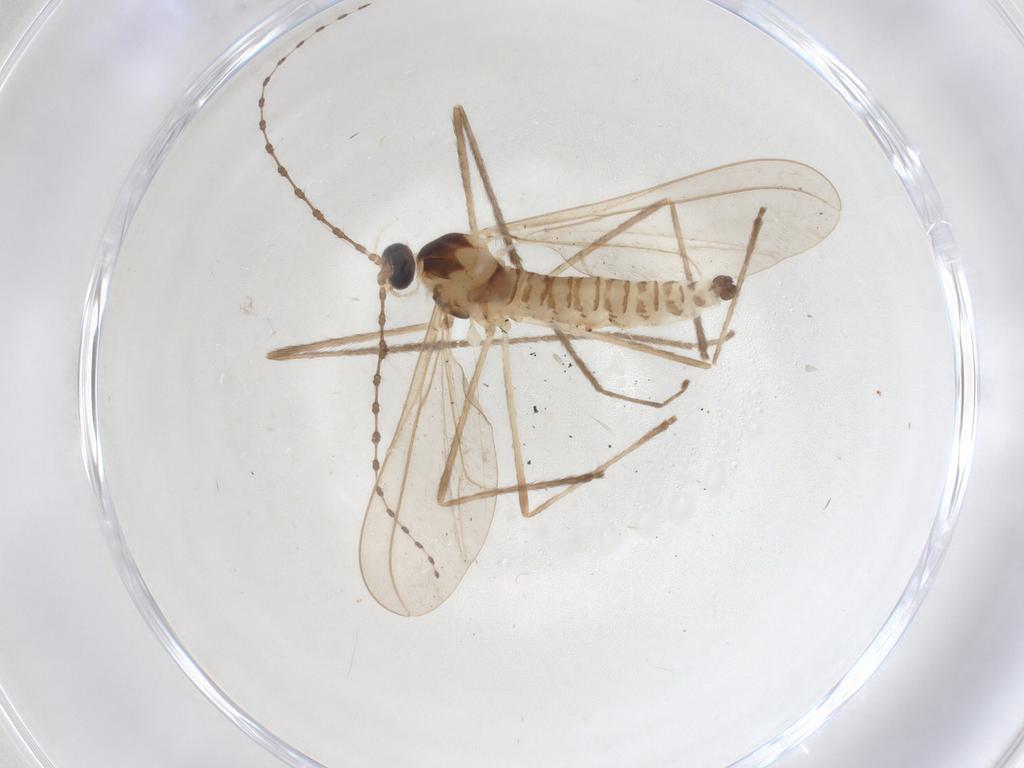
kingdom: Animalia
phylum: Arthropoda
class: Insecta
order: Diptera
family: Cecidomyiidae
